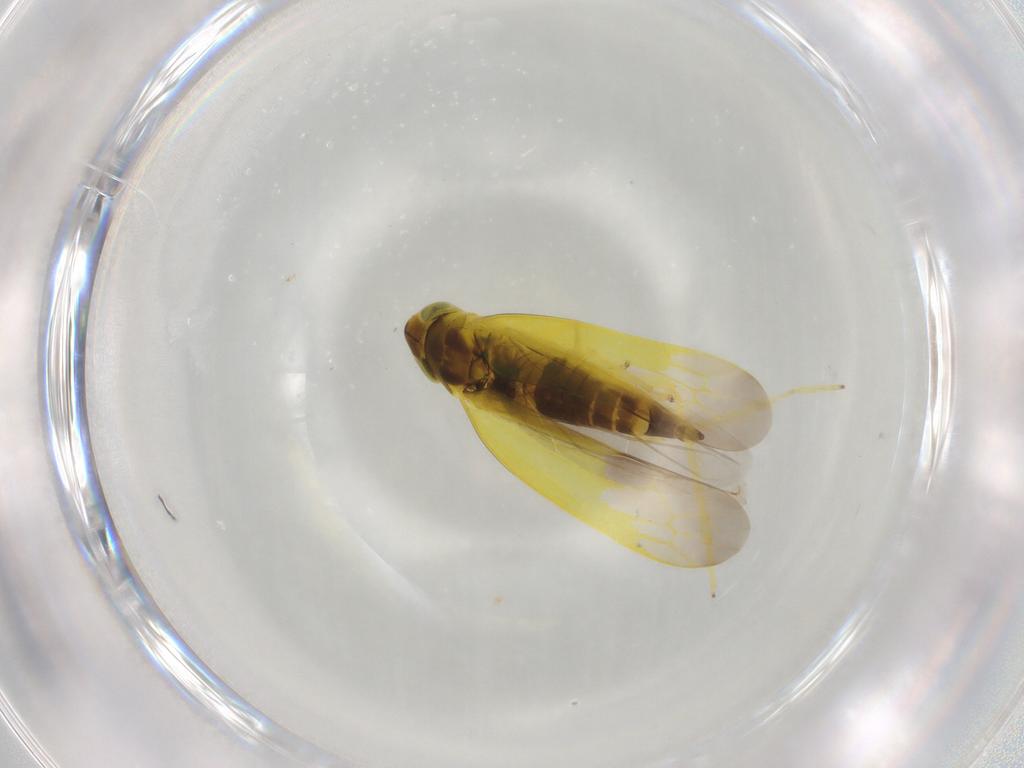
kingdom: Animalia
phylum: Arthropoda
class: Insecta
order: Hemiptera
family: Cicadellidae
